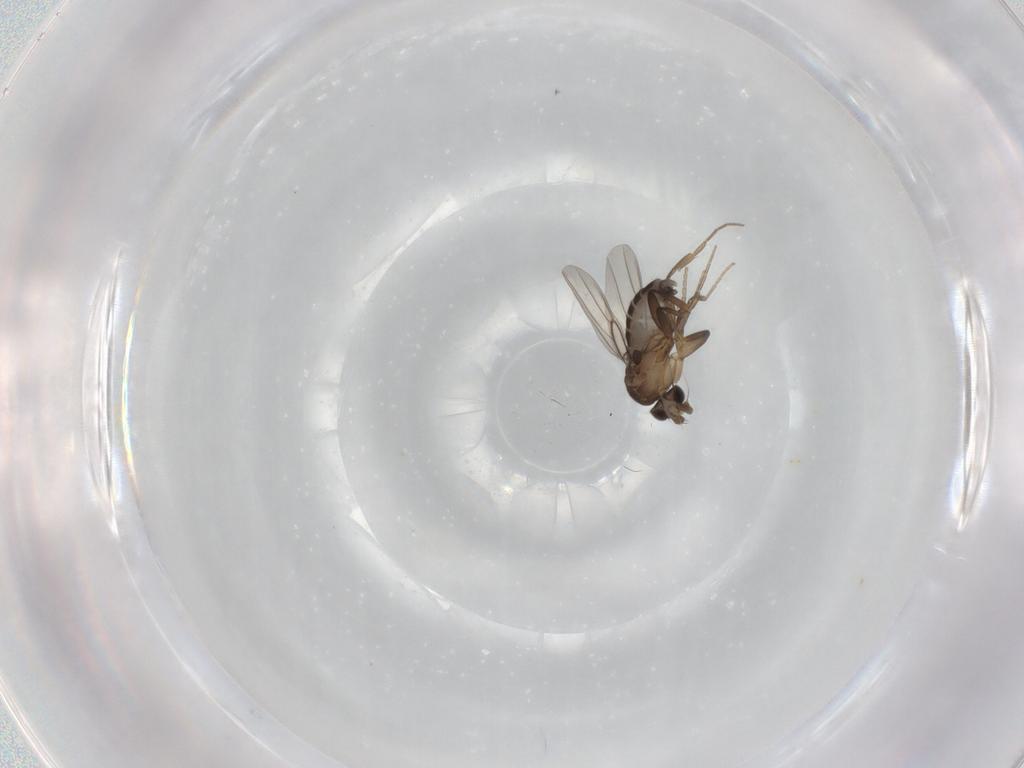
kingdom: Animalia
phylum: Arthropoda
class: Insecta
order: Diptera
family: Phoridae
